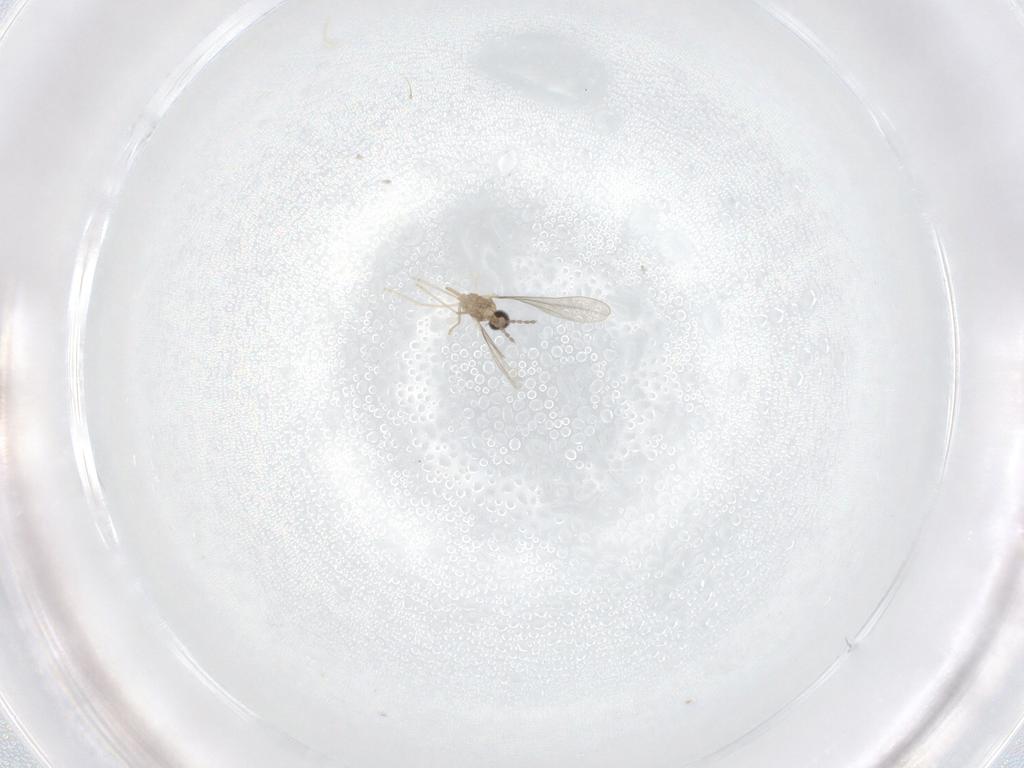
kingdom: Animalia
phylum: Arthropoda
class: Insecta
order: Diptera
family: Cecidomyiidae
